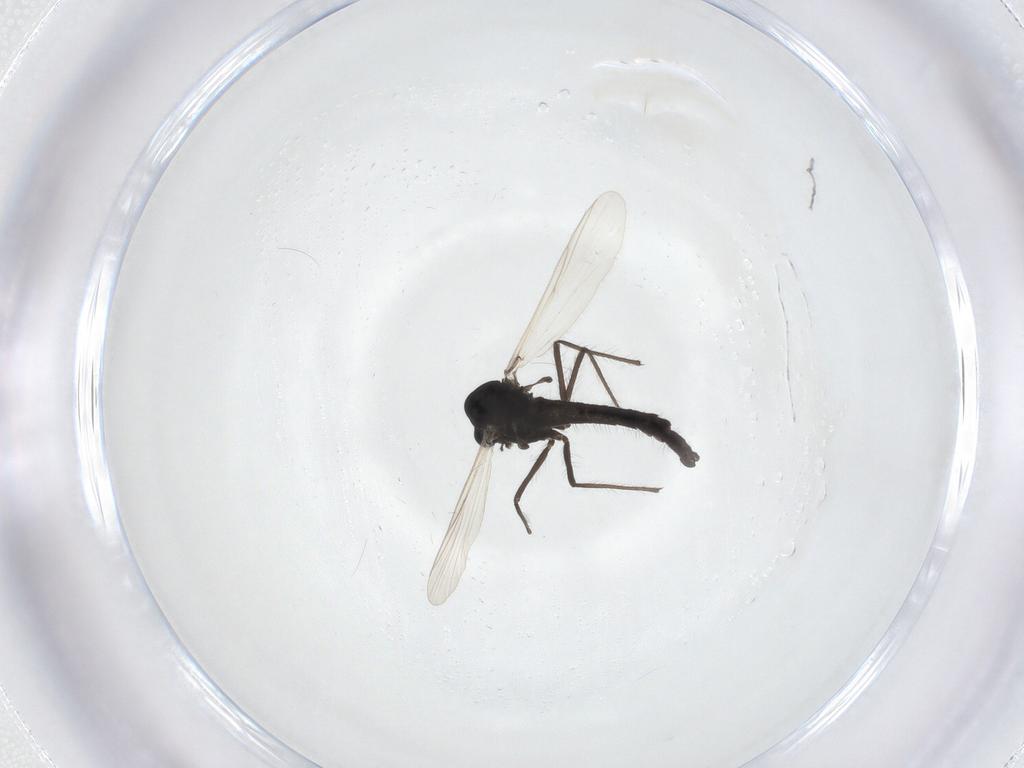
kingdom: Animalia
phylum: Arthropoda
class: Insecta
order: Diptera
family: Chironomidae
